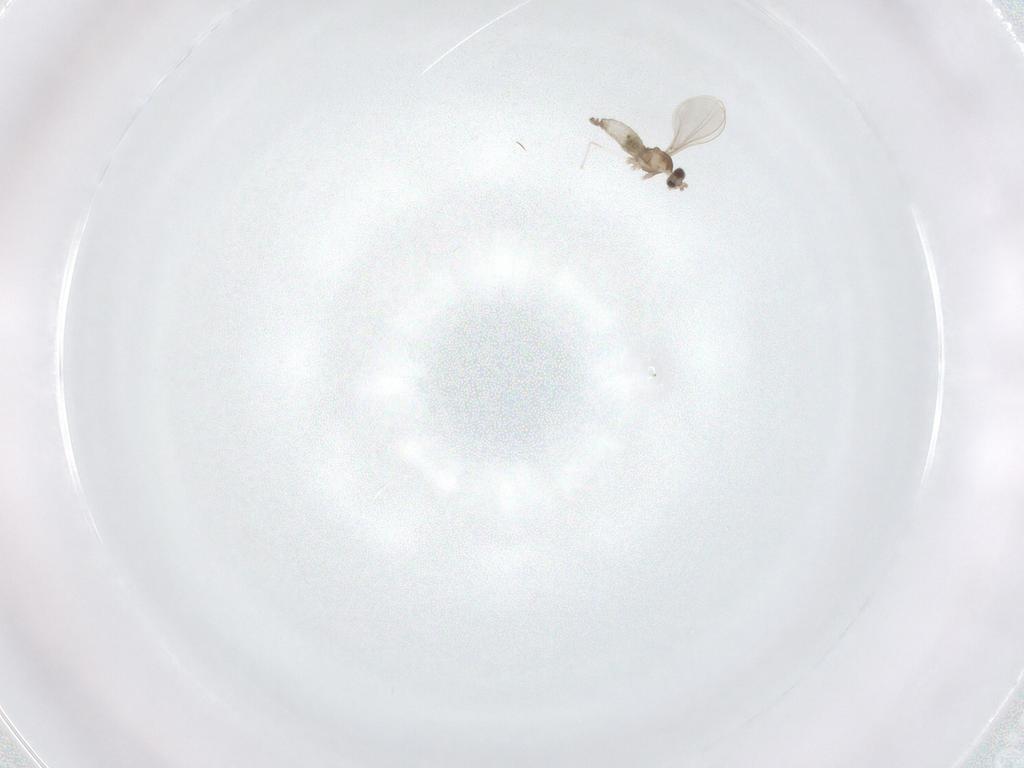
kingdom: Animalia
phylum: Arthropoda
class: Insecta
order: Diptera
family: Cecidomyiidae
